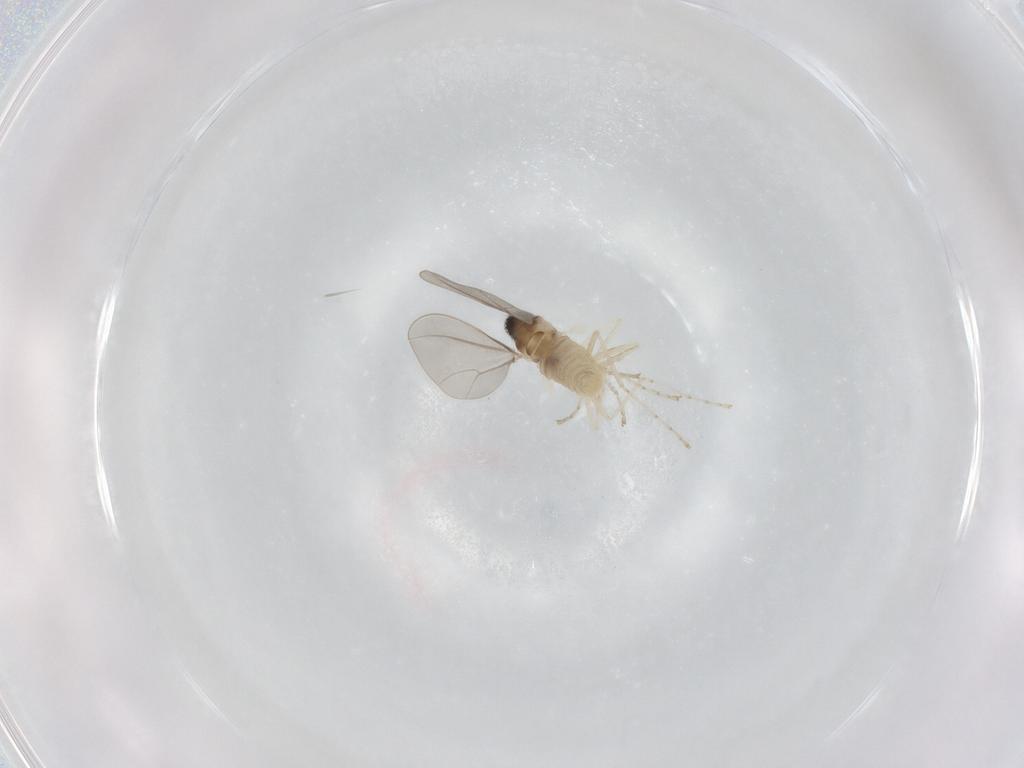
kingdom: Animalia
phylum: Arthropoda
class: Insecta
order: Diptera
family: Cecidomyiidae
